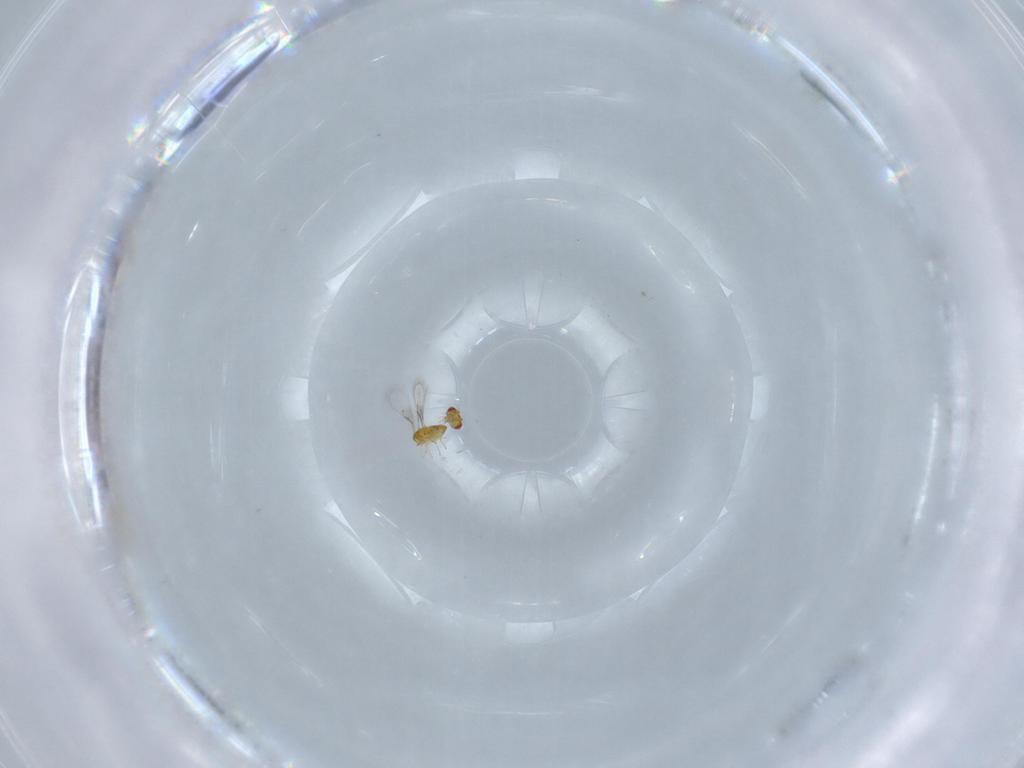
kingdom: Animalia
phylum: Arthropoda
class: Insecta
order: Hymenoptera
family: Trichogrammatidae
